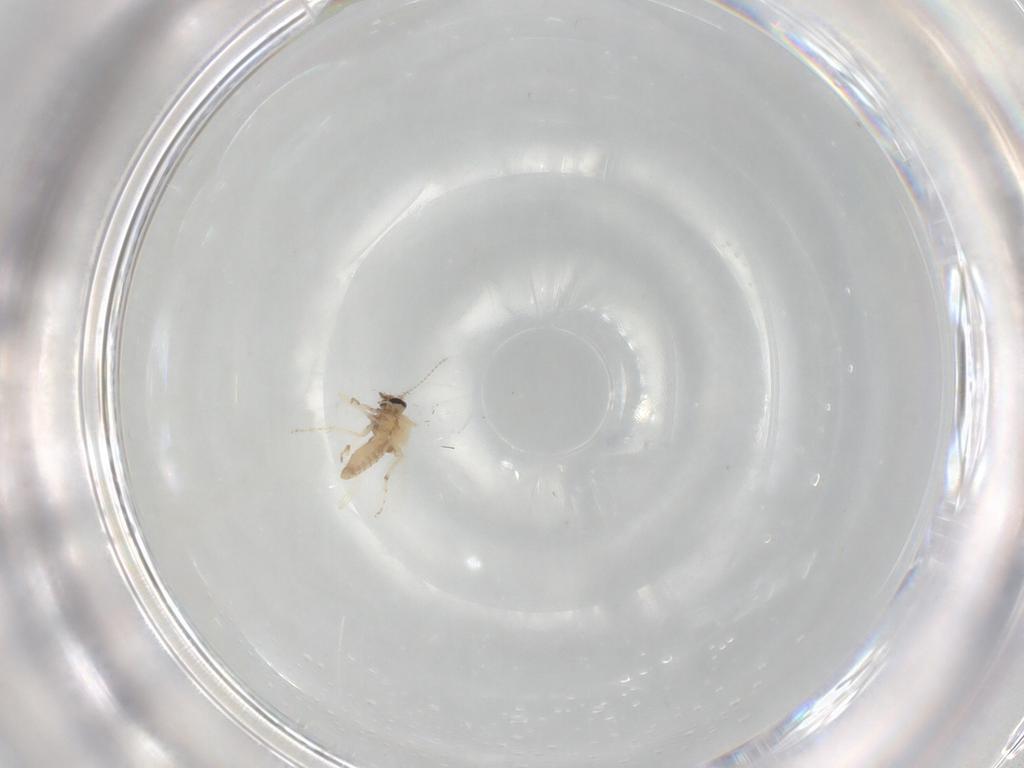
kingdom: Animalia
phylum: Arthropoda
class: Insecta
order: Diptera
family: Ceratopogonidae
